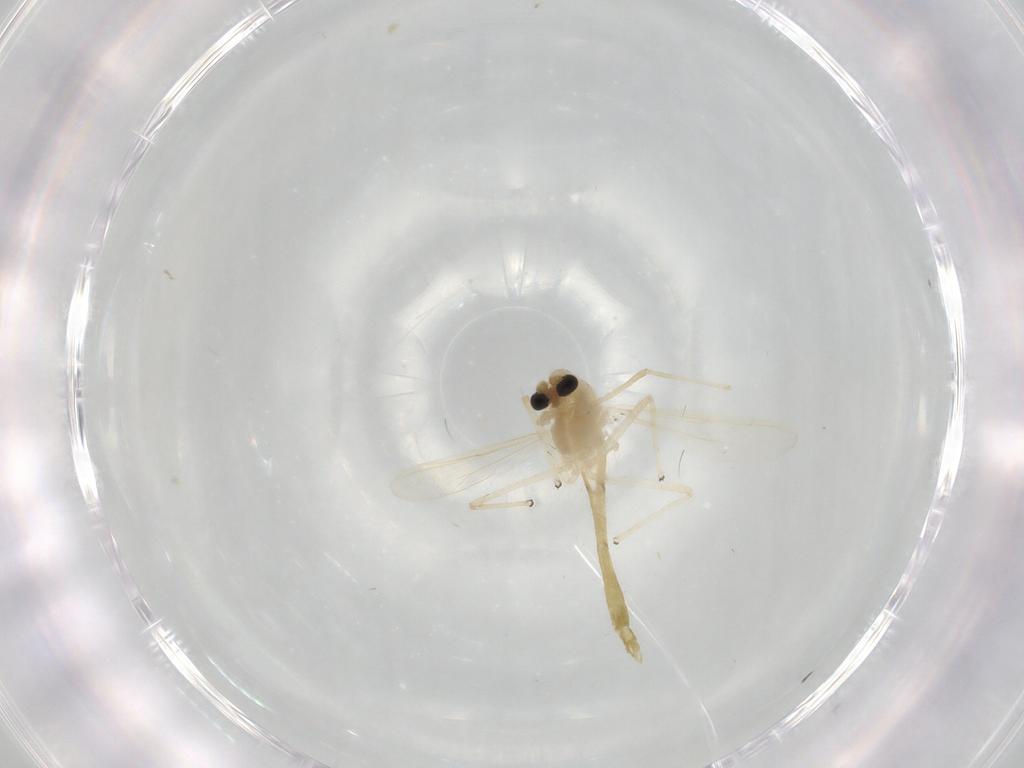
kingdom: Animalia
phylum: Arthropoda
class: Insecta
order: Diptera
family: Chironomidae
